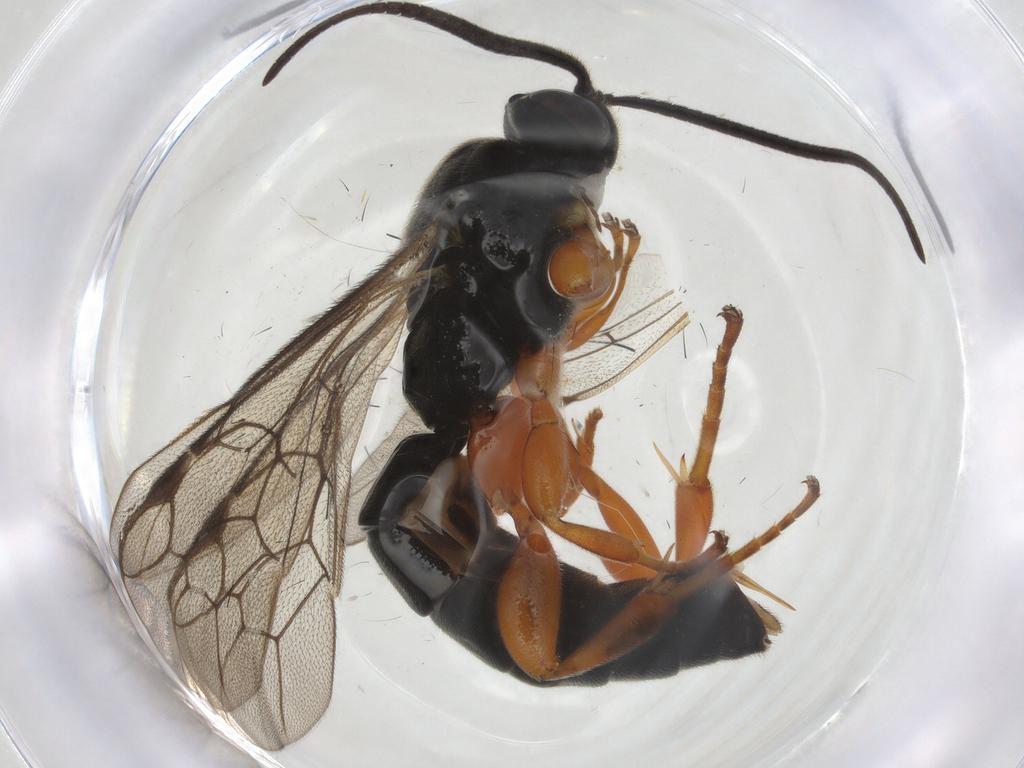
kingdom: Animalia
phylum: Arthropoda
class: Insecta
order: Hymenoptera
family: Ichneumonidae
